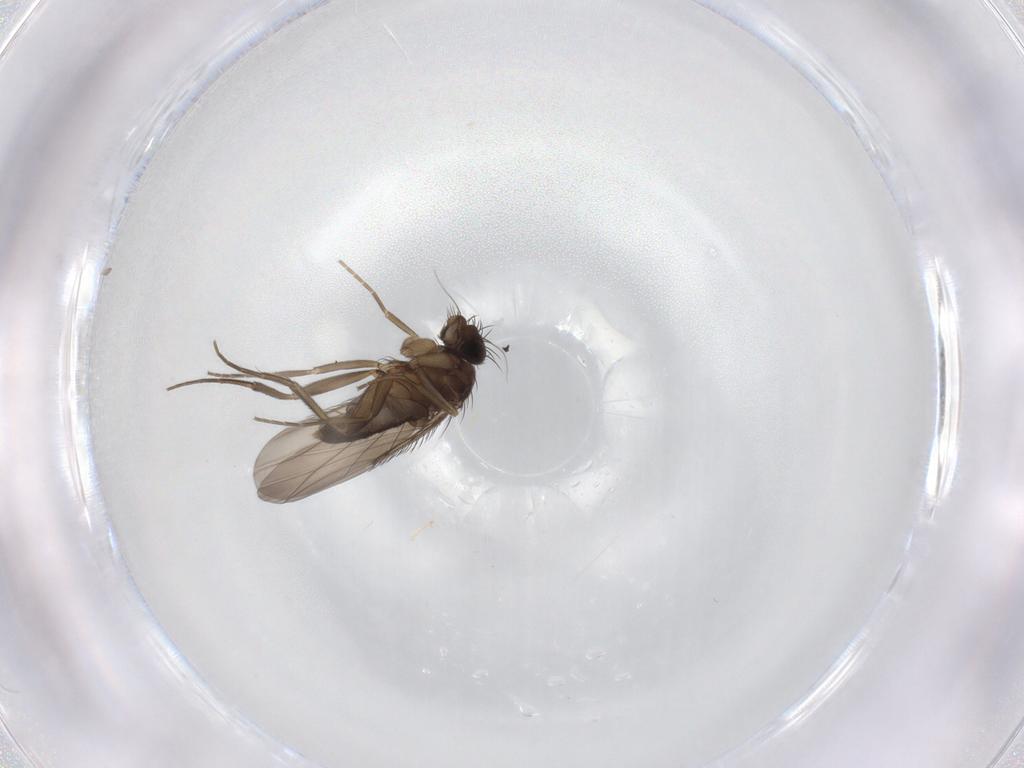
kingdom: Animalia
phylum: Arthropoda
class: Insecta
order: Diptera
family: Phoridae
